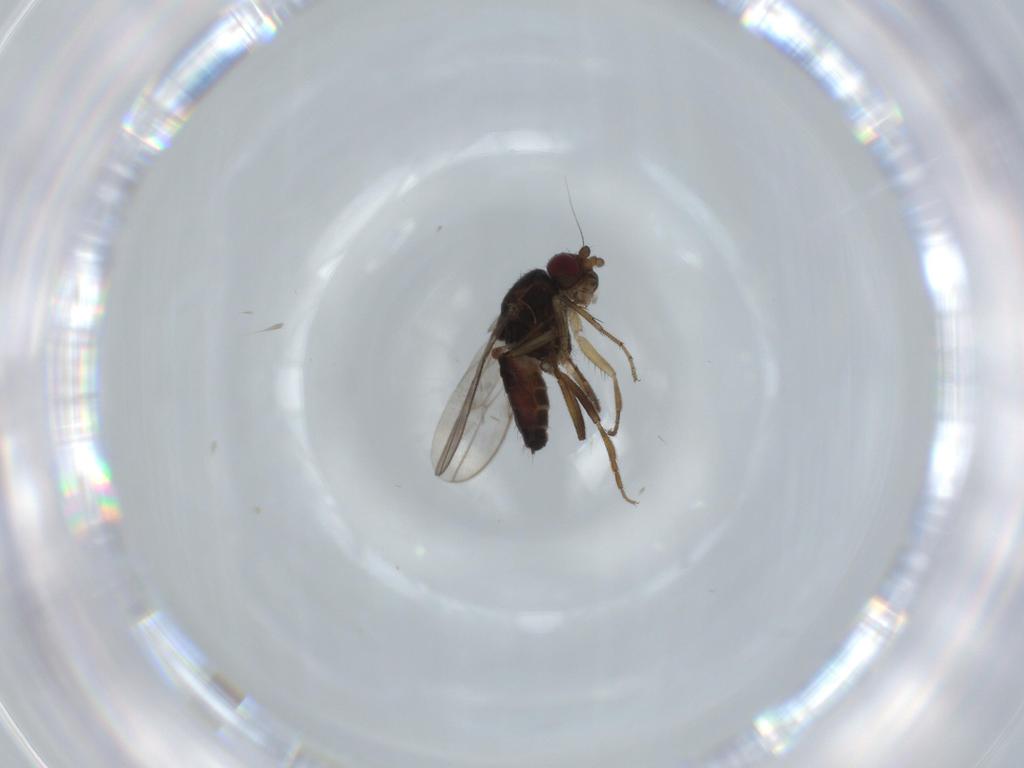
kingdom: Animalia
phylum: Arthropoda
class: Insecta
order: Diptera
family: Sphaeroceridae
